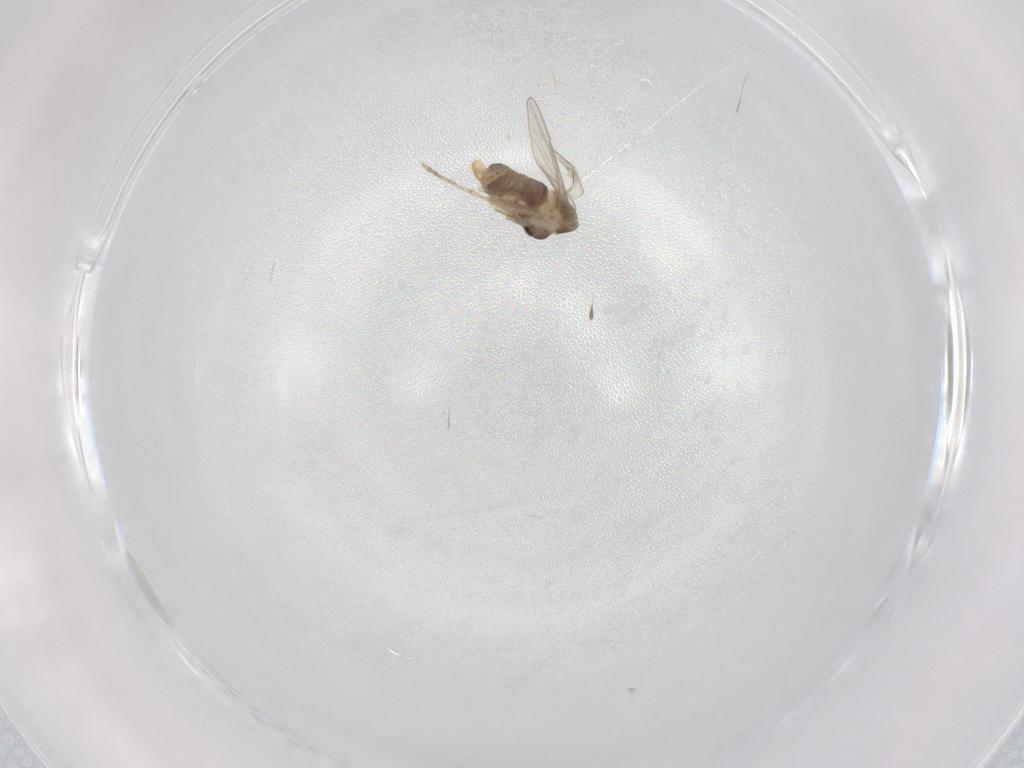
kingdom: Animalia
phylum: Arthropoda
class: Insecta
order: Diptera
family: Psychodidae
